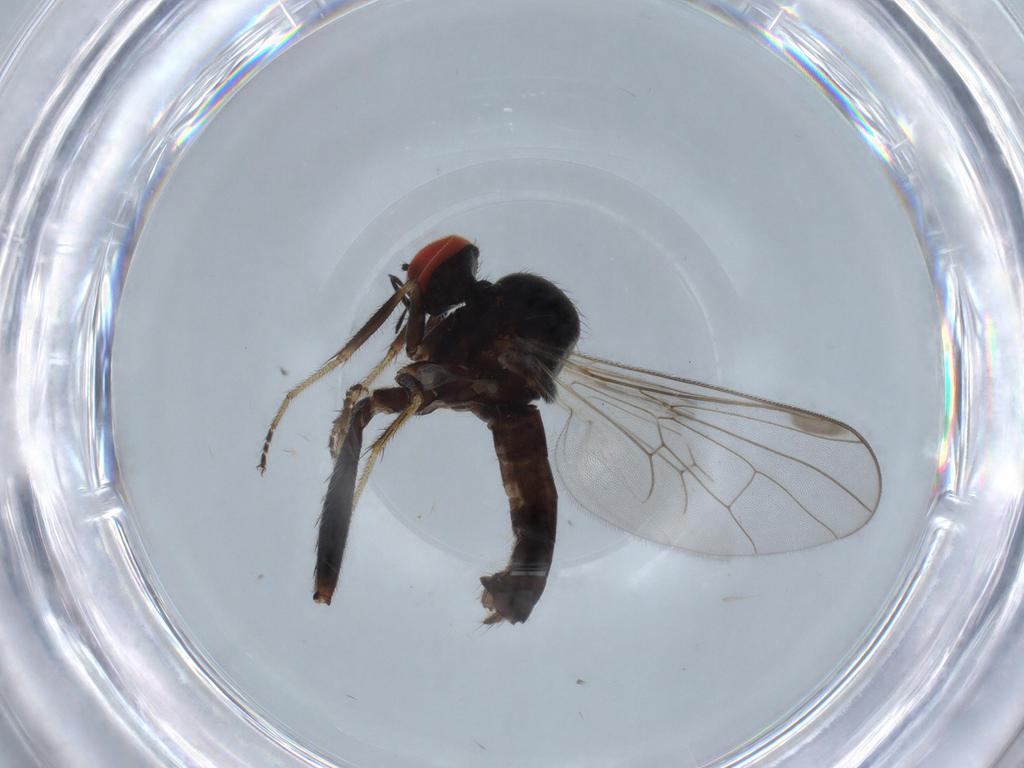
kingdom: Animalia
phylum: Arthropoda
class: Insecta
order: Diptera
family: Hybotidae
